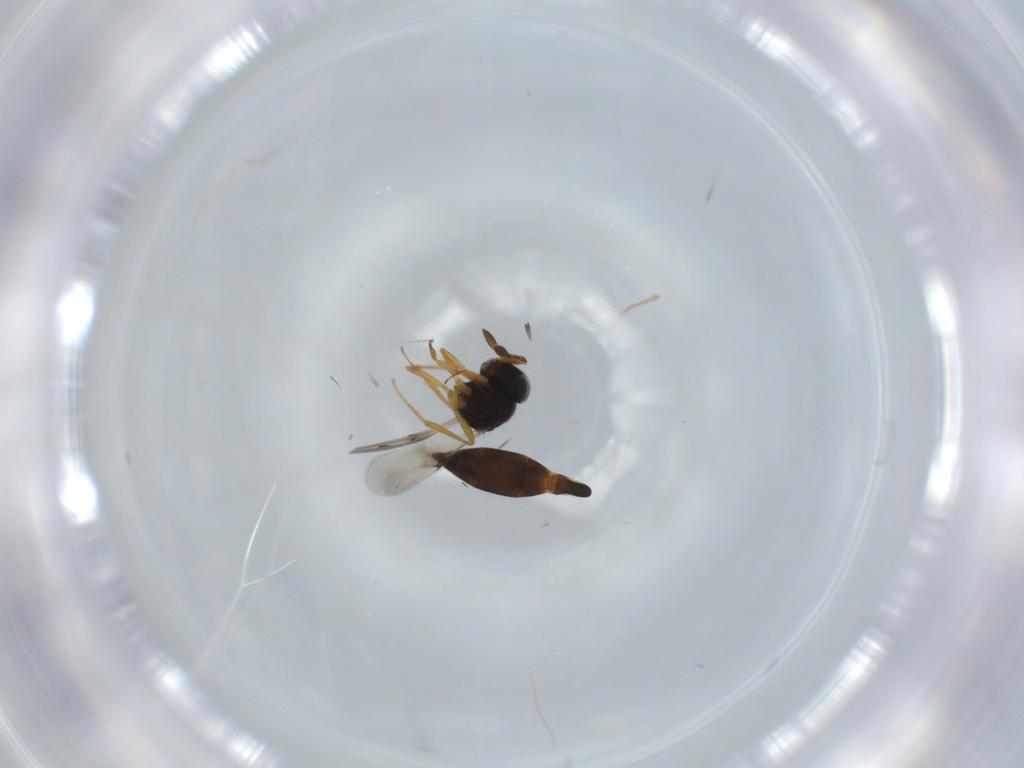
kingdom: Animalia
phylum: Arthropoda
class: Insecta
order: Hymenoptera
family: Scelionidae
